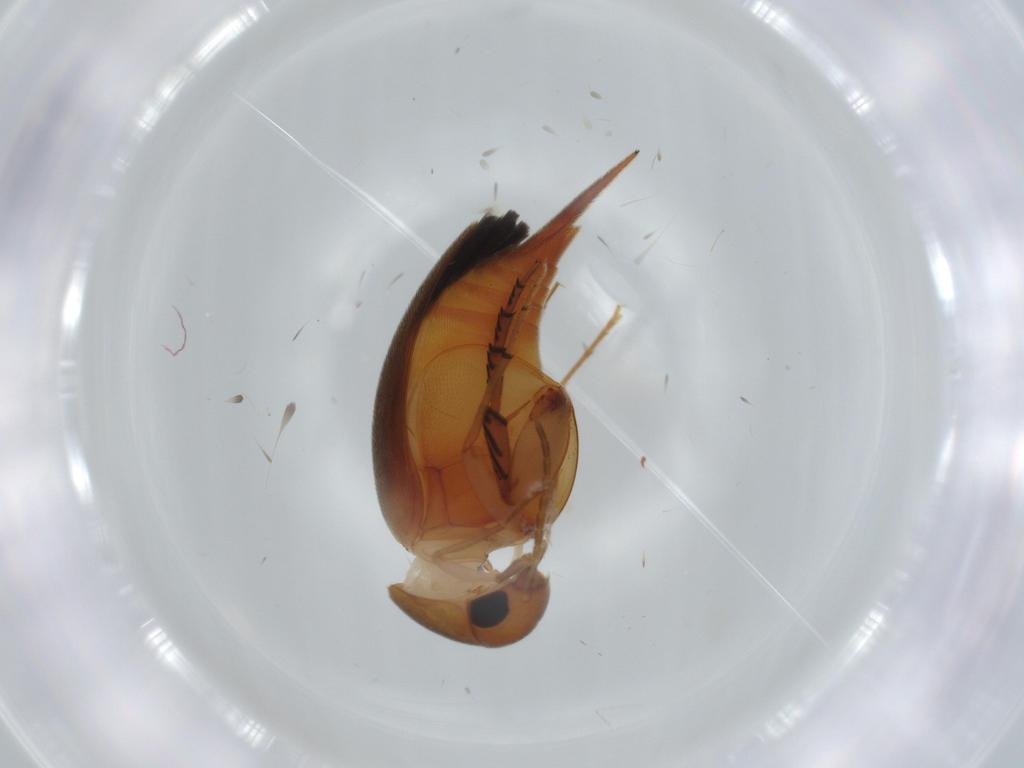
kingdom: Animalia
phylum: Arthropoda
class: Insecta
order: Coleoptera
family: Mordellidae
